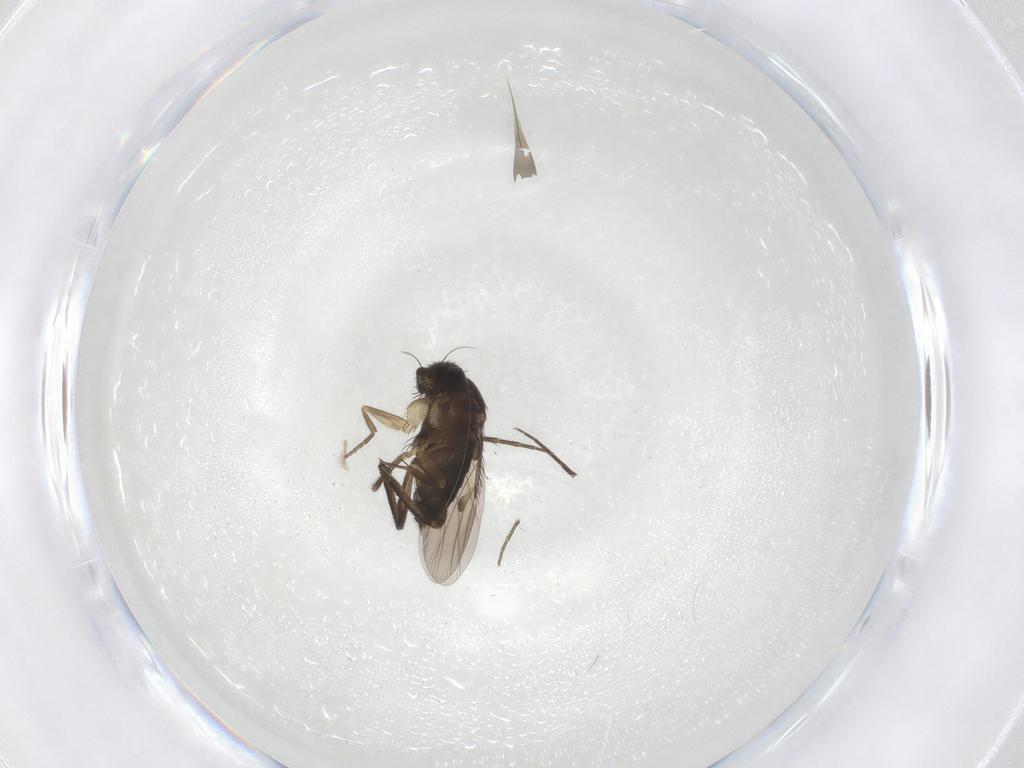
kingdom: Animalia
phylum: Arthropoda
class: Insecta
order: Diptera
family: Phoridae
